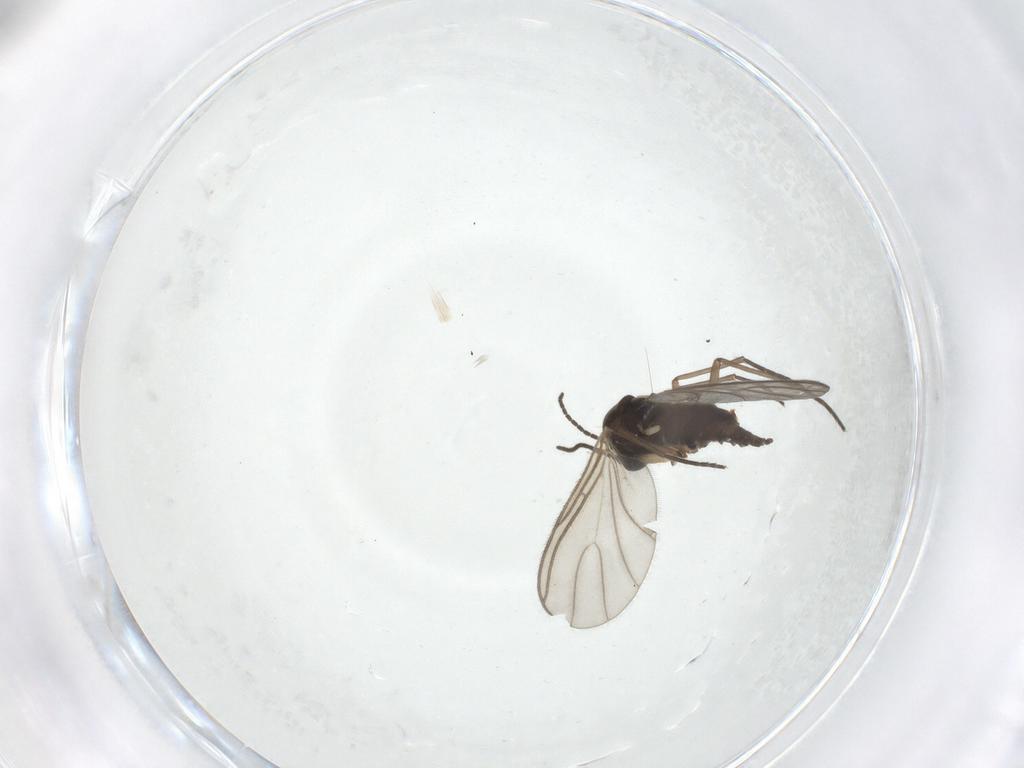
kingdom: Animalia
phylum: Arthropoda
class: Insecta
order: Diptera
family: Sciaridae
